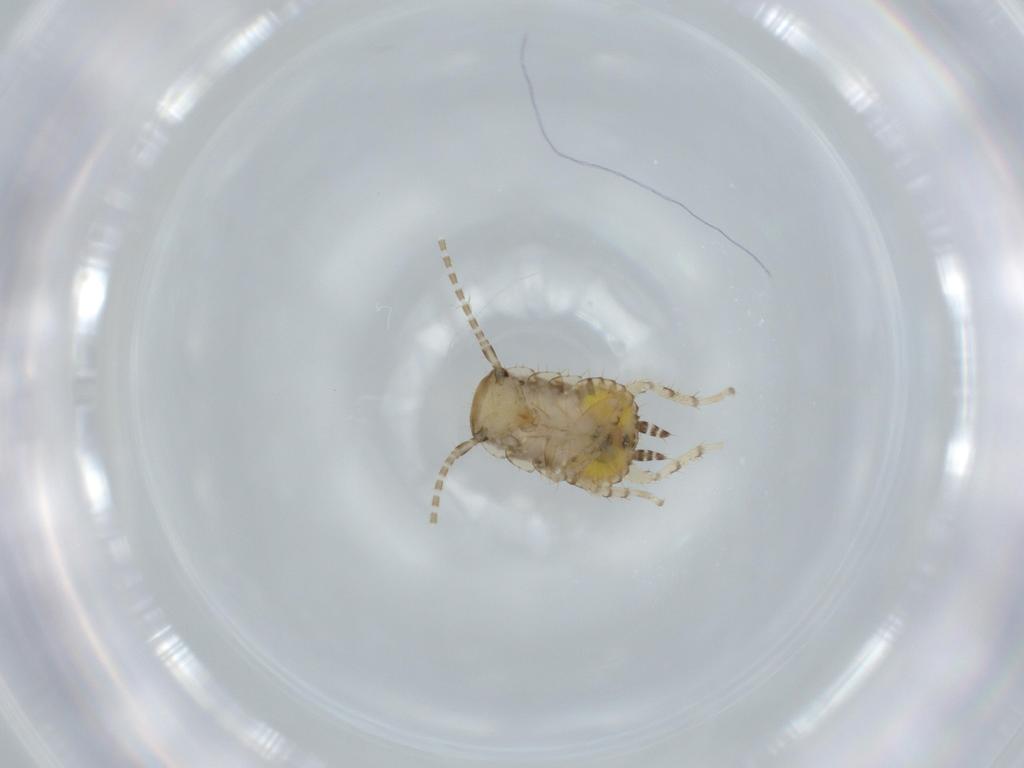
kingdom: Animalia
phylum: Arthropoda
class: Insecta
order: Blattodea
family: Ectobiidae
